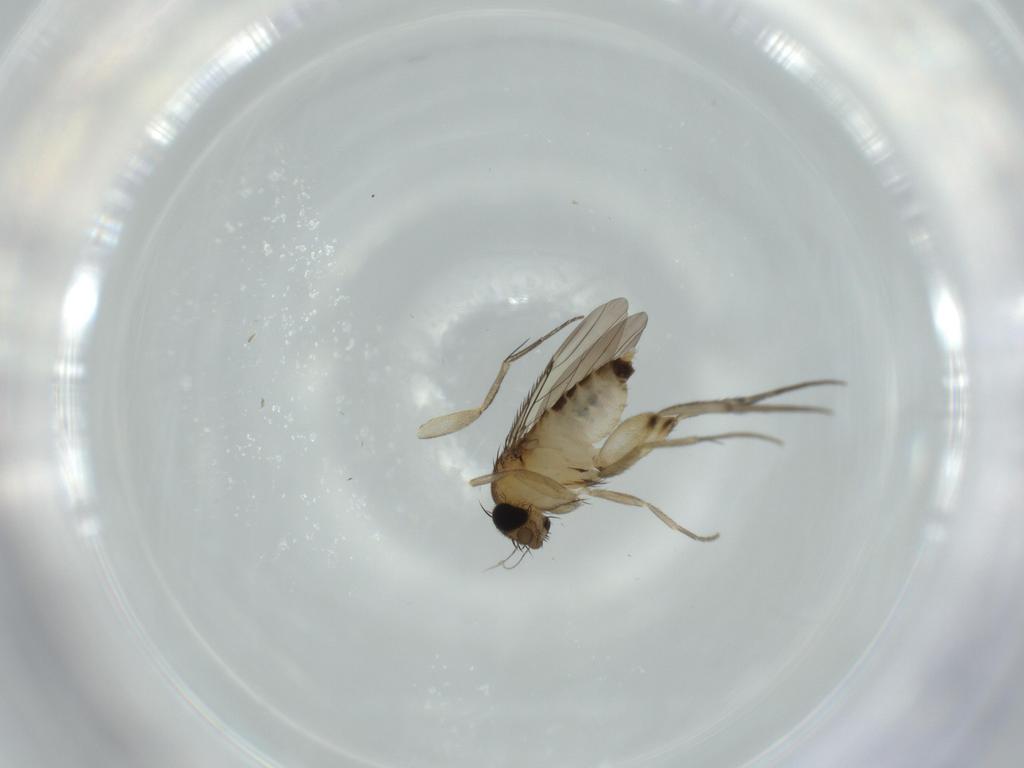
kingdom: Animalia
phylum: Arthropoda
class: Insecta
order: Diptera
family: Phoridae
